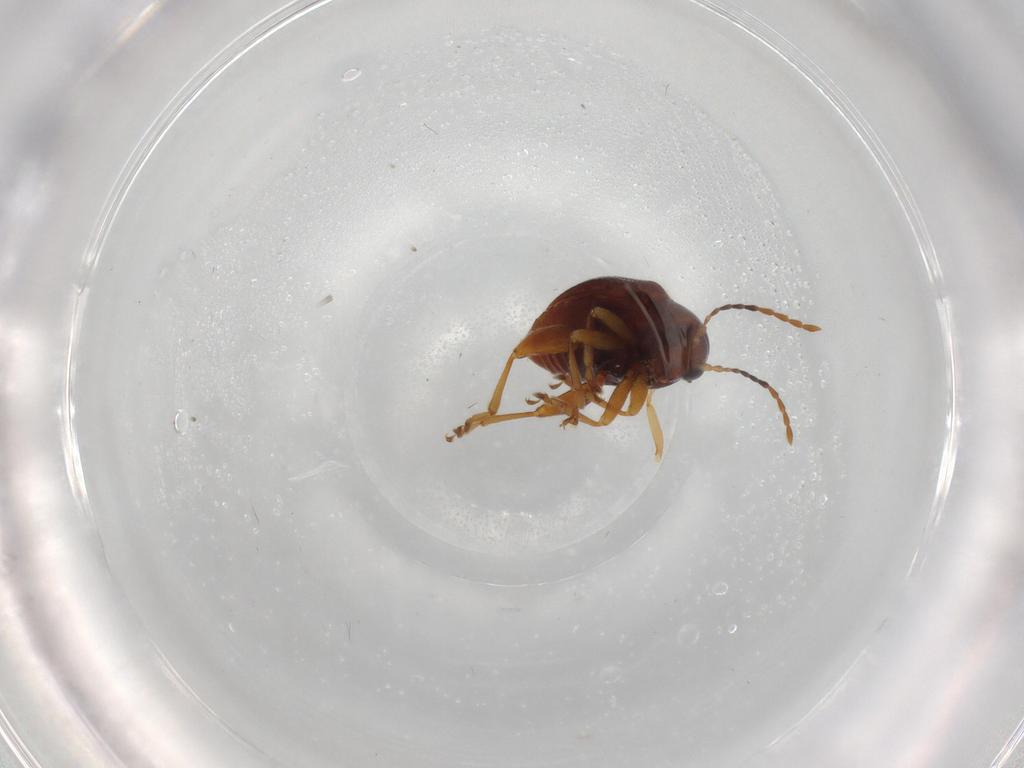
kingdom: Animalia
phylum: Arthropoda
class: Insecta
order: Coleoptera
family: Chrysomelidae
